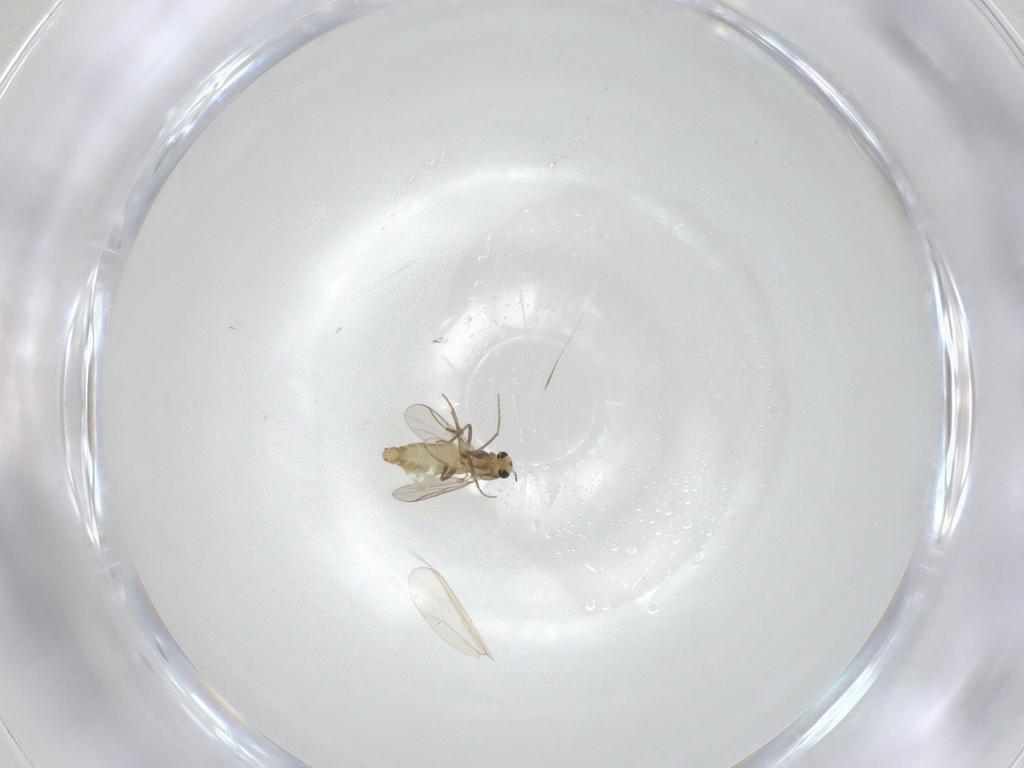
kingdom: Animalia
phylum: Arthropoda
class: Insecta
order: Diptera
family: Chironomidae
